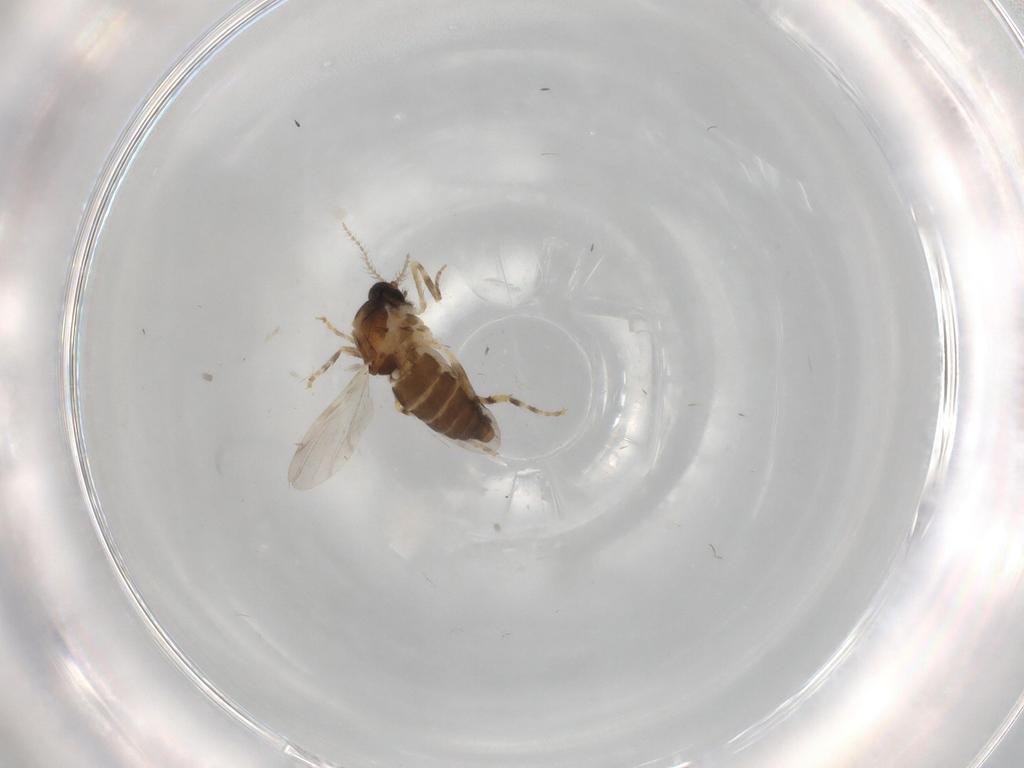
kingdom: Animalia
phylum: Arthropoda
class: Insecta
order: Diptera
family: Ceratopogonidae
